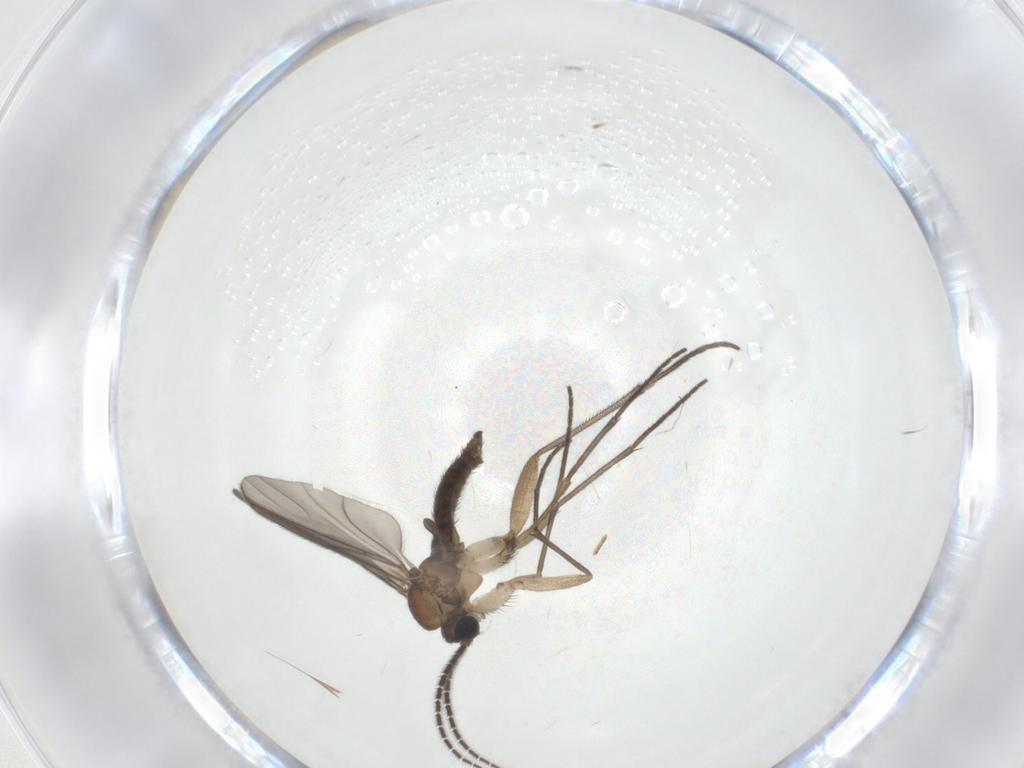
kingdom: Animalia
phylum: Arthropoda
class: Insecta
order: Diptera
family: Sciaridae
